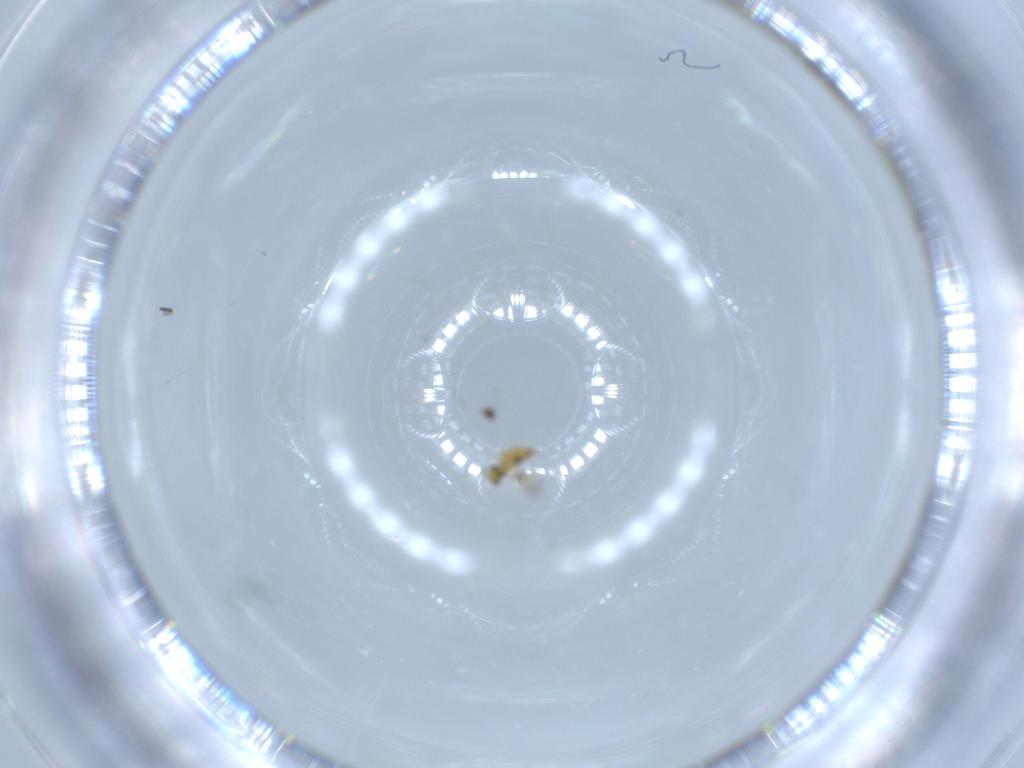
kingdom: Animalia
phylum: Arthropoda
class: Insecta
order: Hymenoptera
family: Signiphoridae
